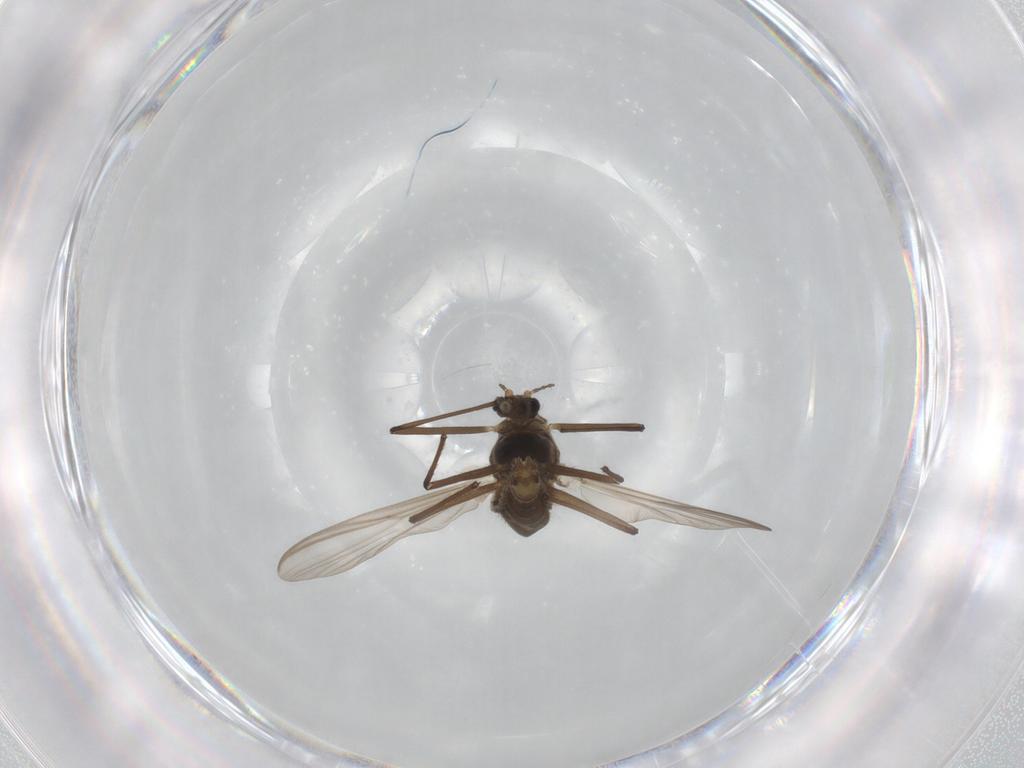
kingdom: Animalia
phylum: Arthropoda
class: Insecta
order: Diptera
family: Chironomidae
